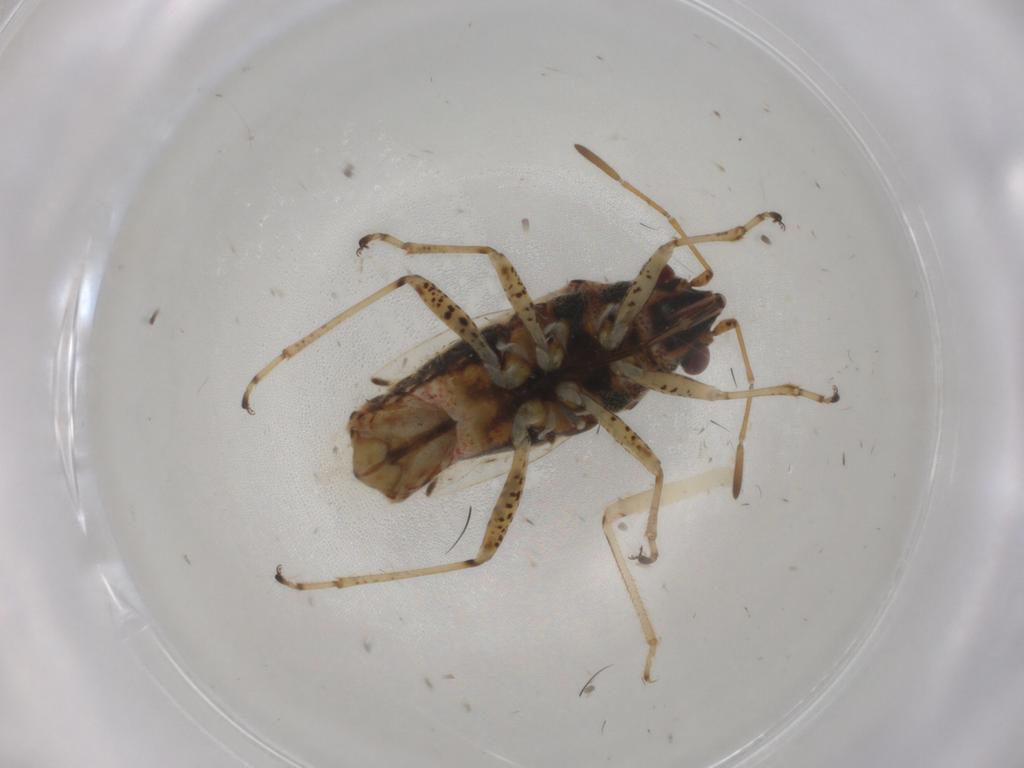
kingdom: Animalia
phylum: Arthropoda
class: Insecta
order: Hemiptera
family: Lygaeidae
